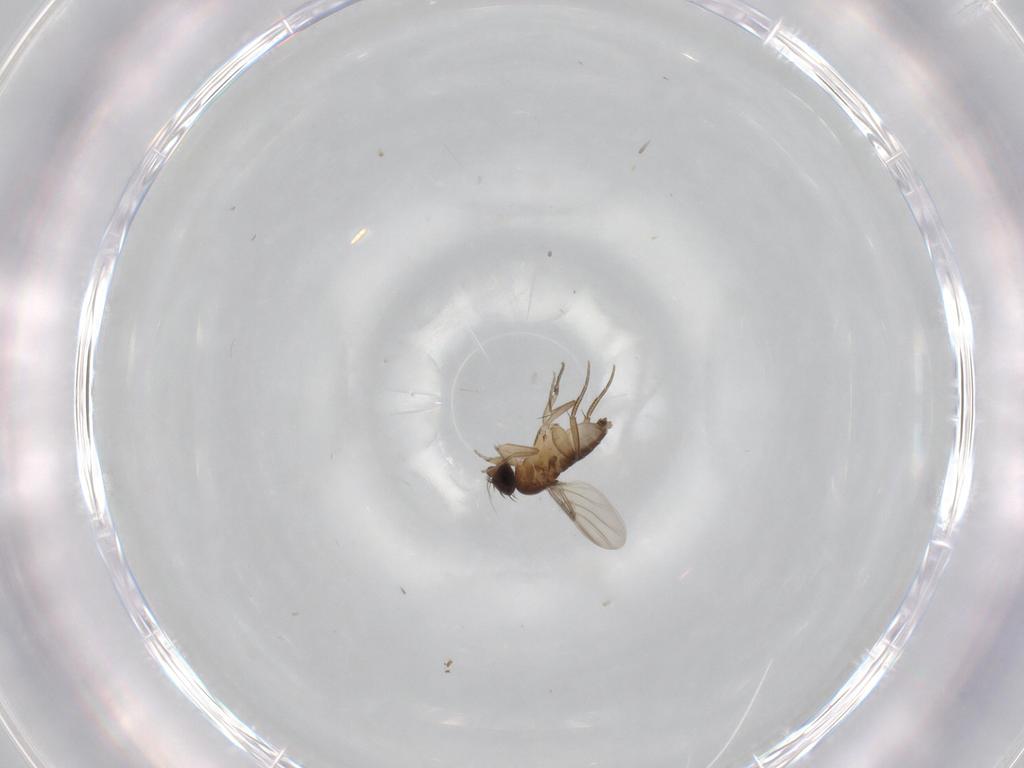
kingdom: Animalia
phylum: Arthropoda
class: Insecta
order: Diptera
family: Phoridae
